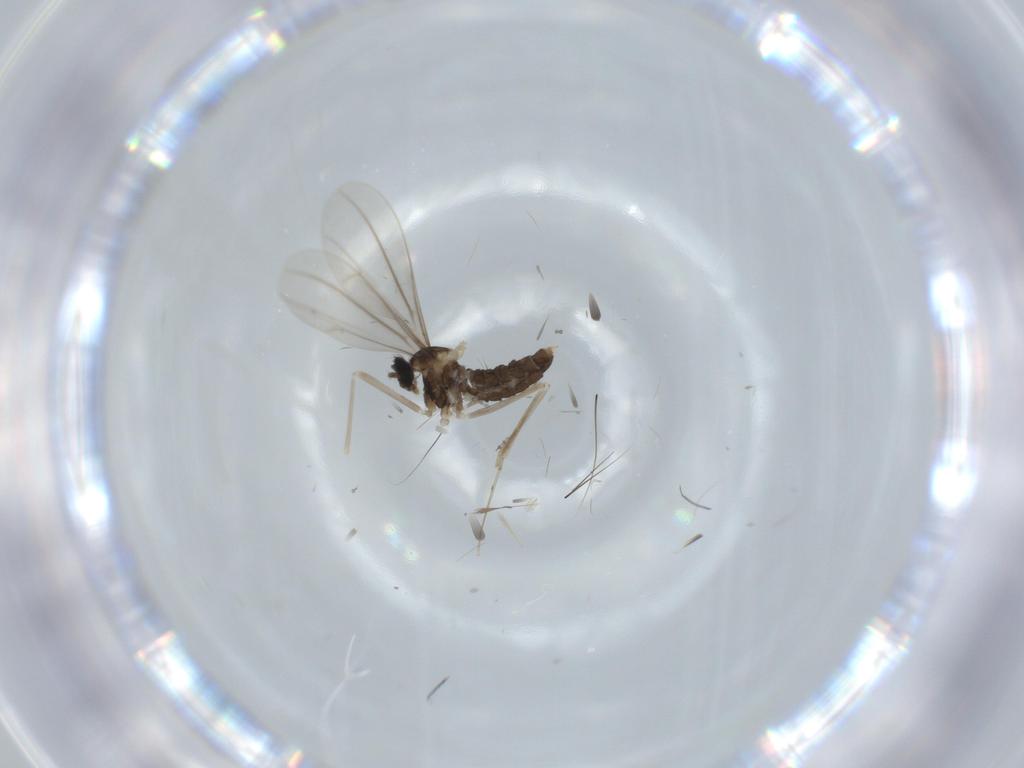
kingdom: Animalia
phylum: Arthropoda
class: Insecta
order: Diptera
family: Cecidomyiidae
